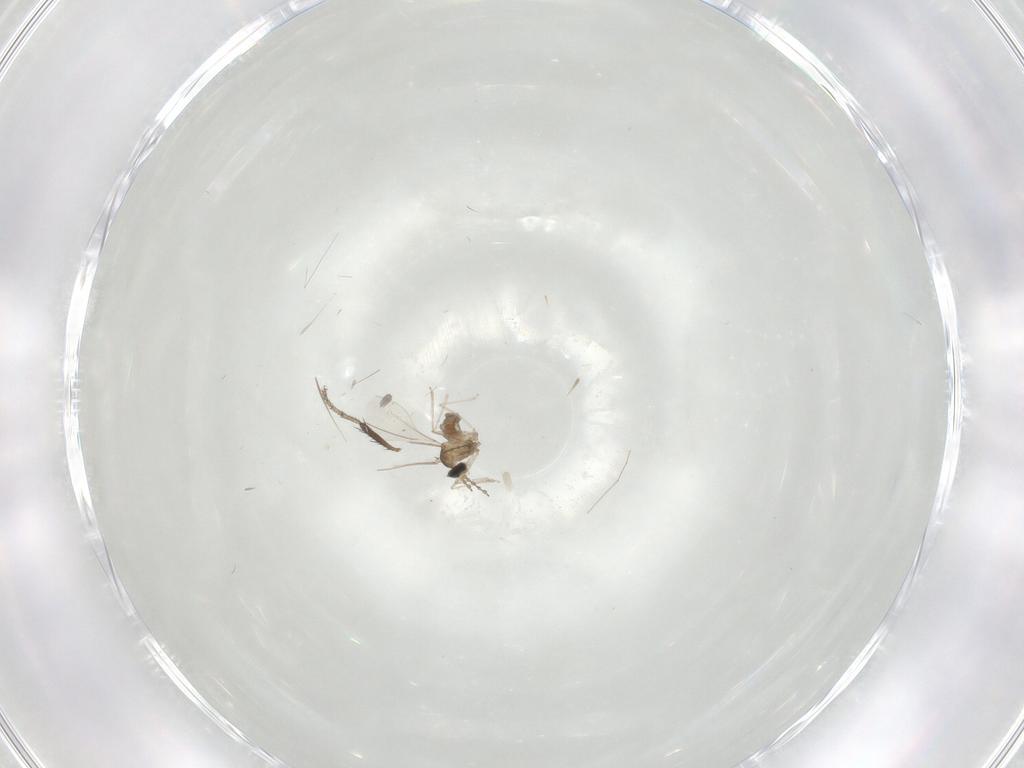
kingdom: Animalia
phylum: Arthropoda
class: Insecta
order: Diptera
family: Cecidomyiidae
